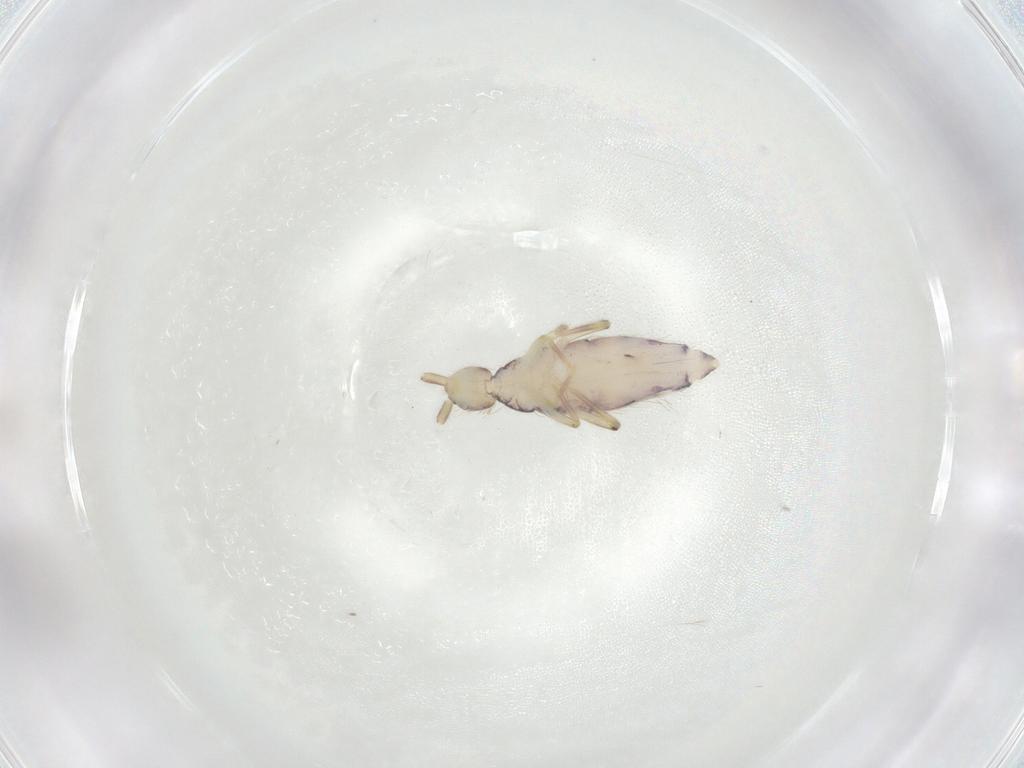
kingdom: Animalia
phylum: Arthropoda
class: Collembola
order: Entomobryomorpha
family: Entomobryidae
